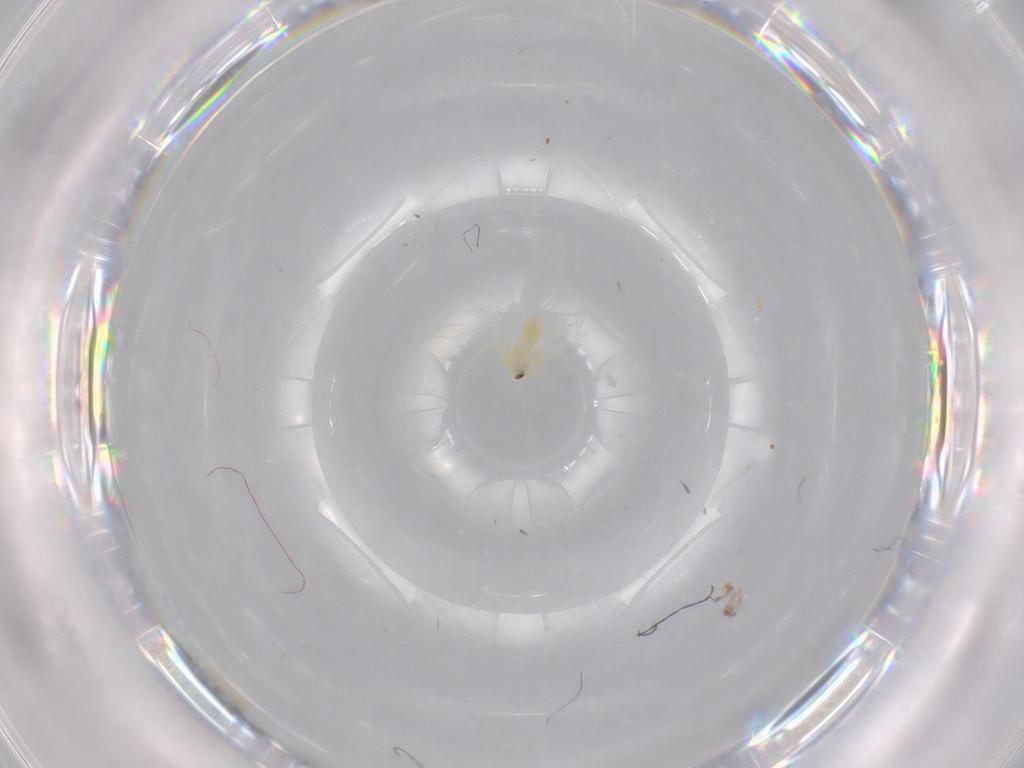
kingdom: Animalia
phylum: Arthropoda
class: Insecta
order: Hemiptera
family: Aleyrodidae
